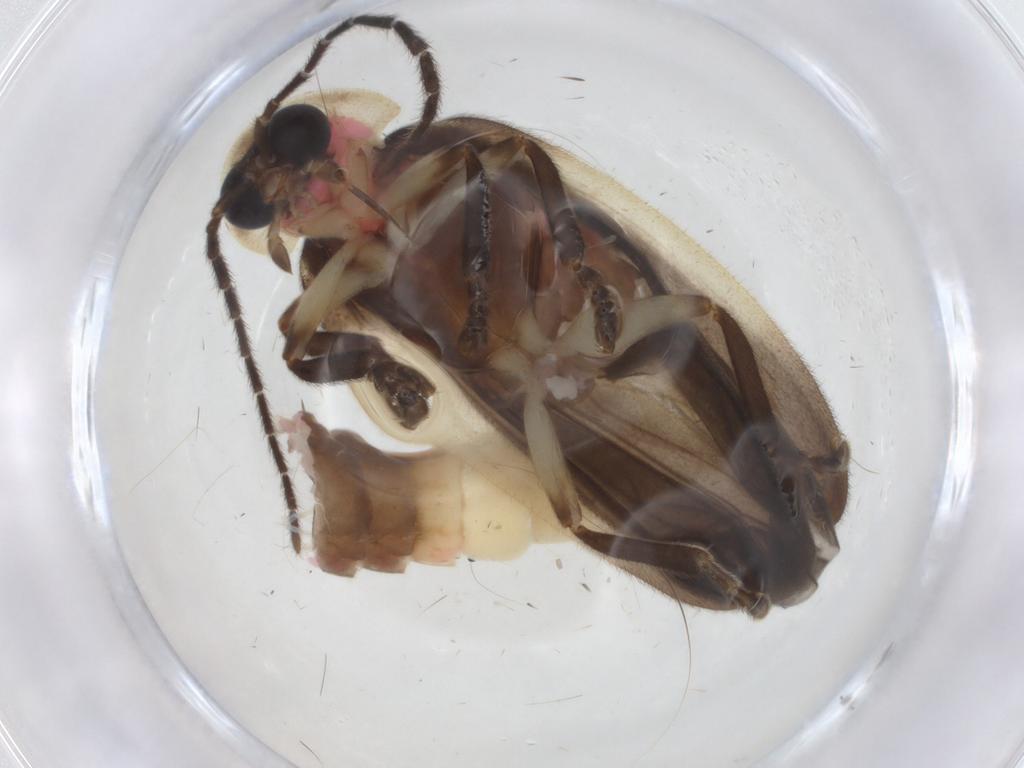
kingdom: Animalia
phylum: Arthropoda
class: Insecta
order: Coleoptera
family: Lampyridae
